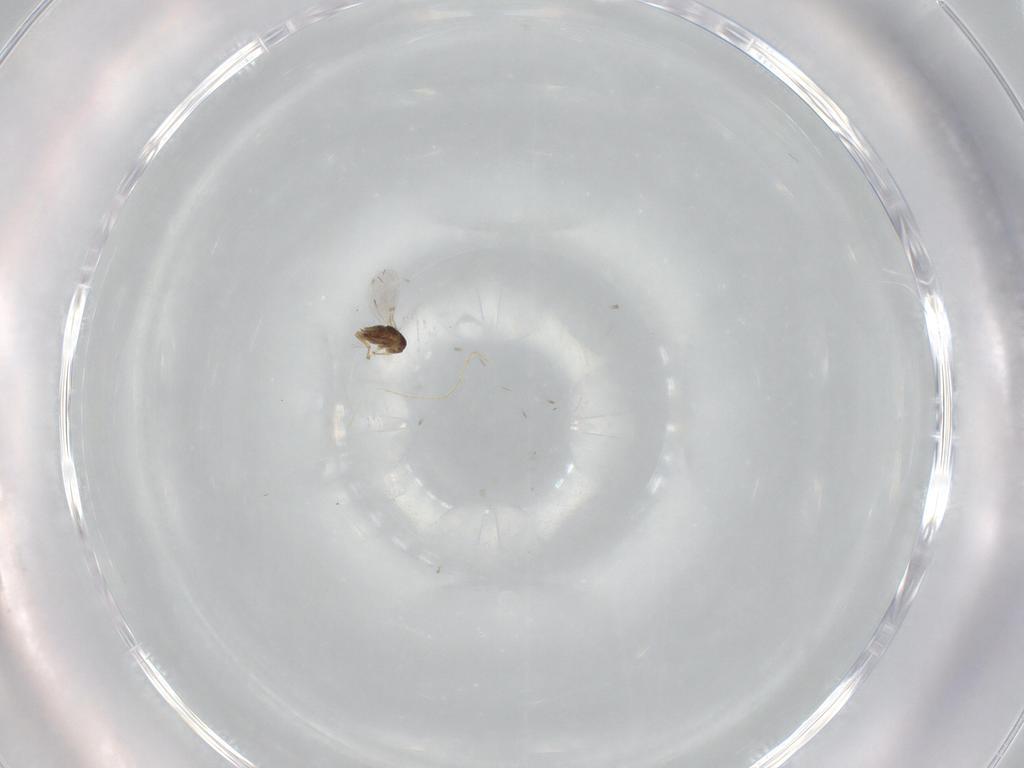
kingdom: Animalia
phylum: Arthropoda
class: Insecta
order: Hymenoptera
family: Encyrtidae
